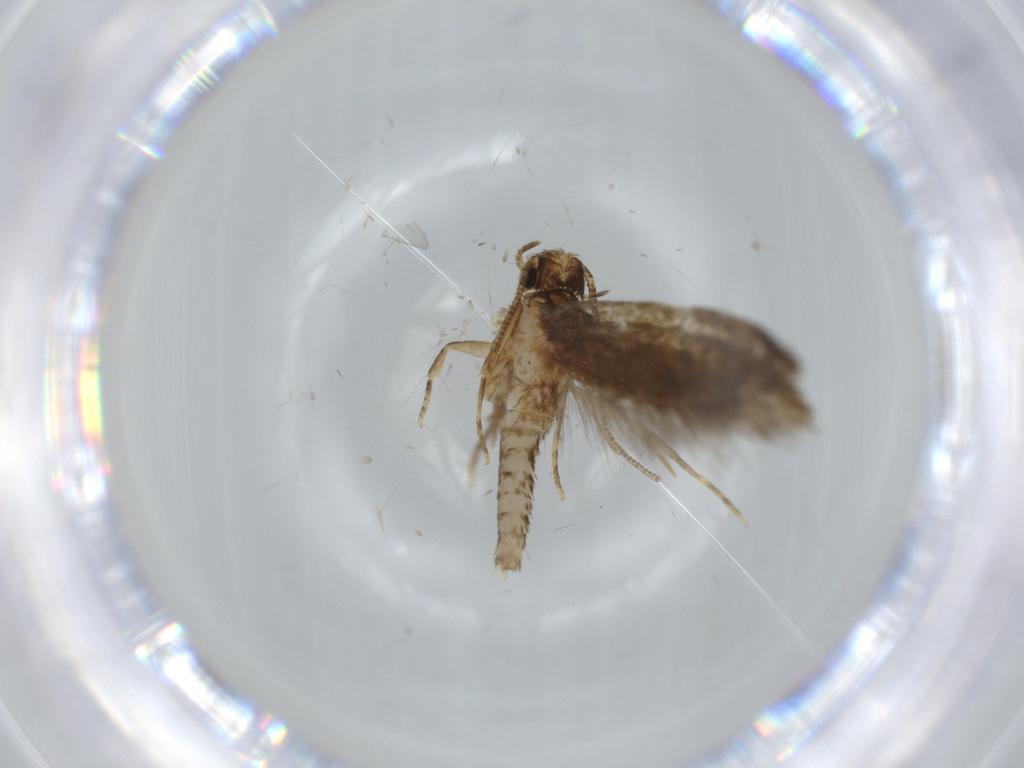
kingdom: Animalia
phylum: Arthropoda
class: Insecta
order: Lepidoptera
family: Tineidae
